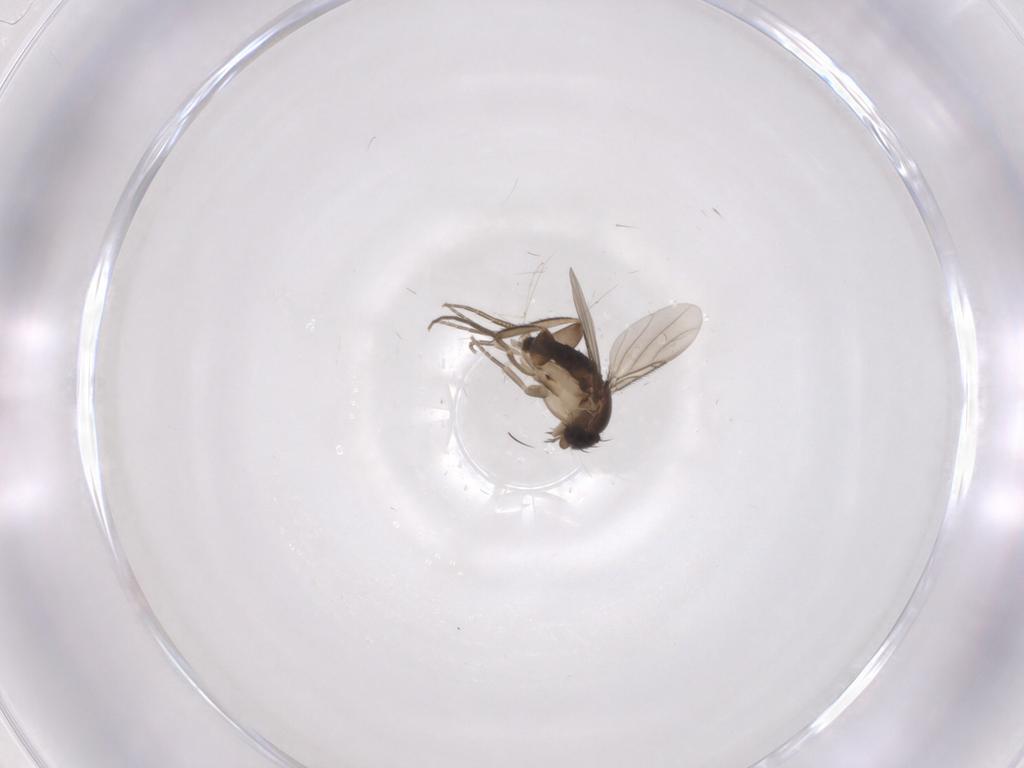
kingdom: Animalia
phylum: Arthropoda
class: Insecta
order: Diptera
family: Phoridae
